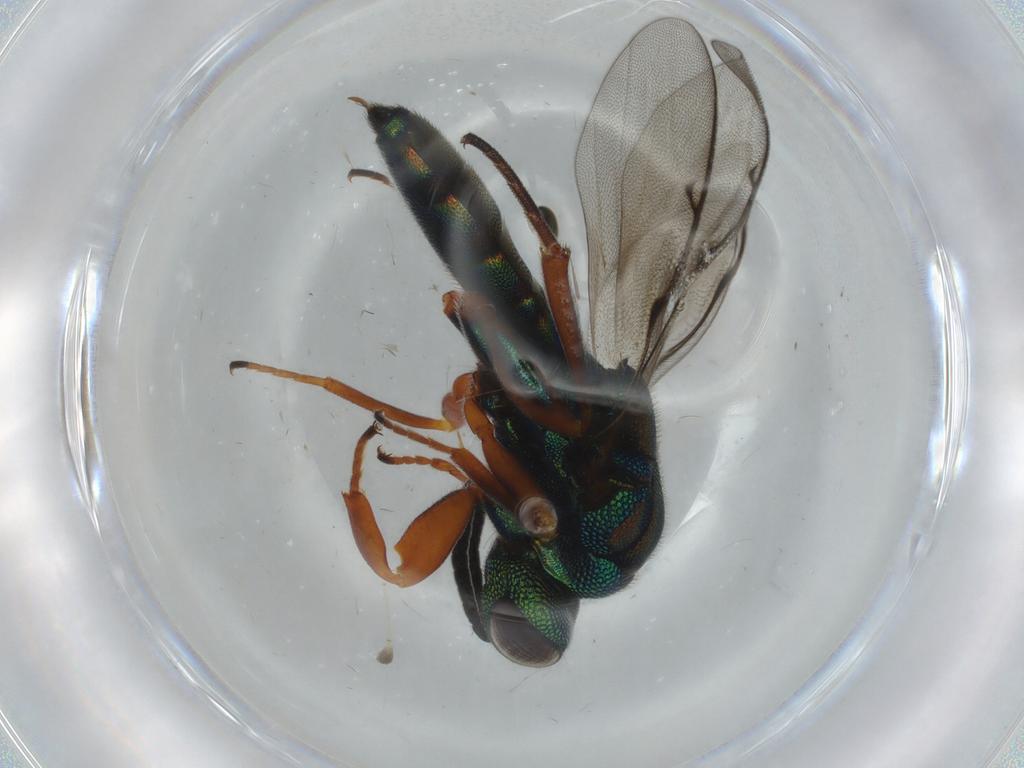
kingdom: Animalia
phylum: Arthropoda
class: Insecta
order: Hymenoptera
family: Lyciscidae
